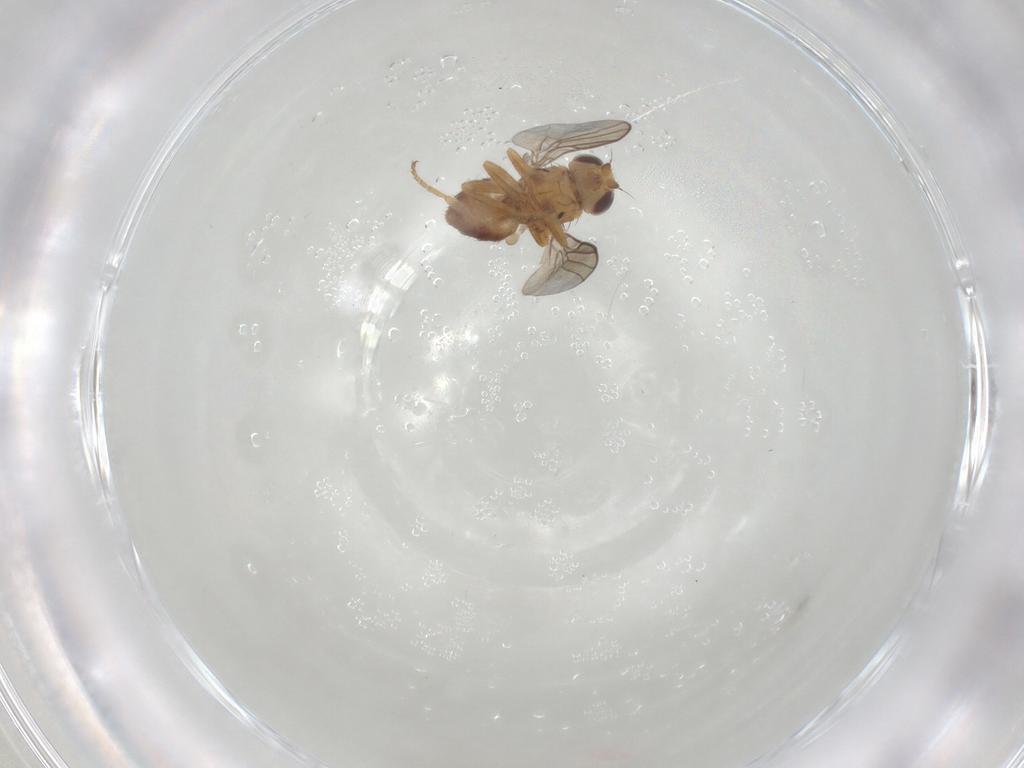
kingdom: Animalia
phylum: Arthropoda
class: Insecta
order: Diptera
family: Chloropidae
